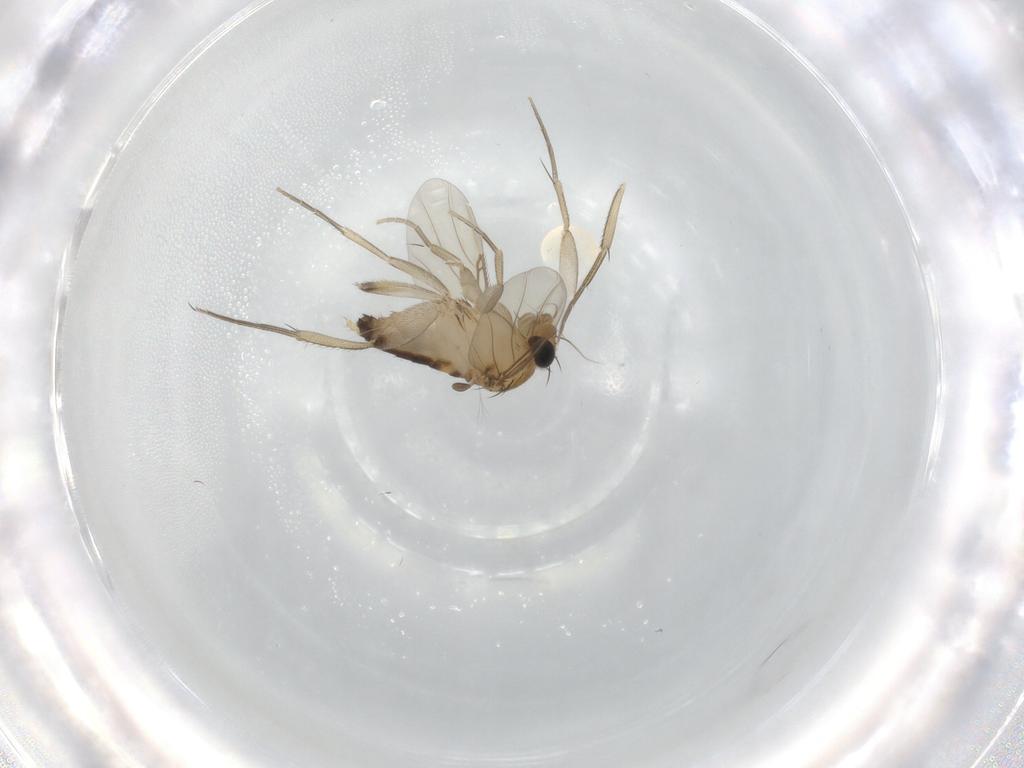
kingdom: Animalia
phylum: Arthropoda
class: Insecta
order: Diptera
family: Phoridae
